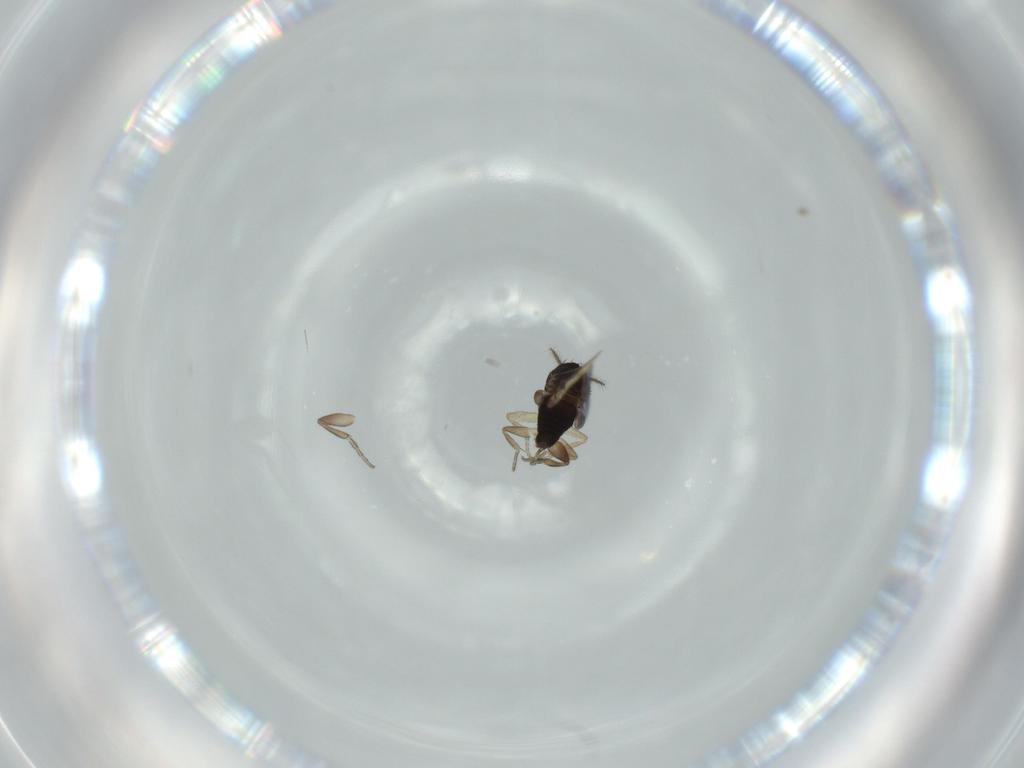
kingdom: Animalia
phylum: Arthropoda
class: Insecta
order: Diptera
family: Phoridae
